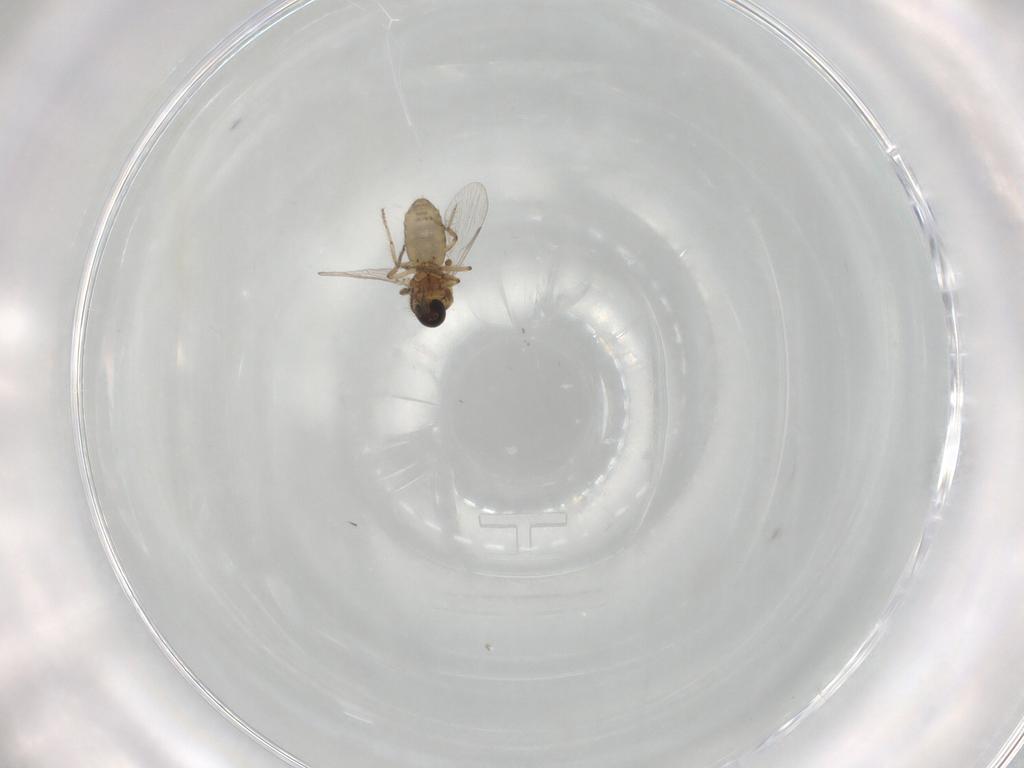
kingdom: Animalia
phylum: Arthropoda
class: Insecta
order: Diptera
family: Ceratopogonidae
